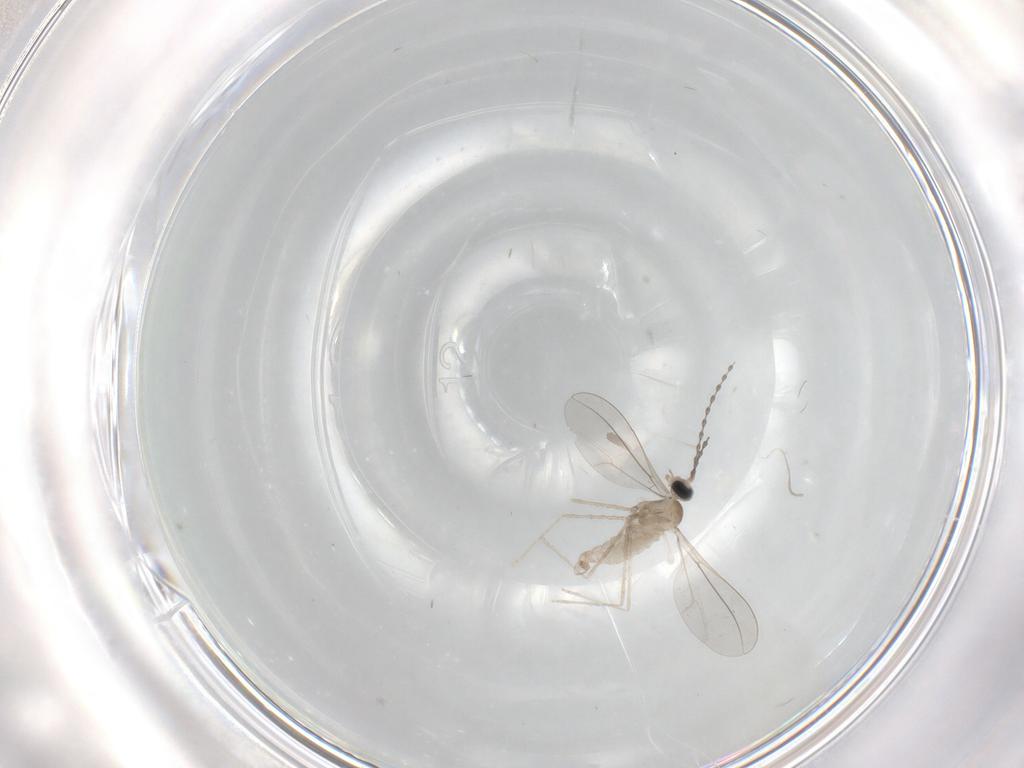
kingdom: Animalia
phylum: Arthropoda
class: Insecta
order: Diptera
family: Cecidomyiidae
